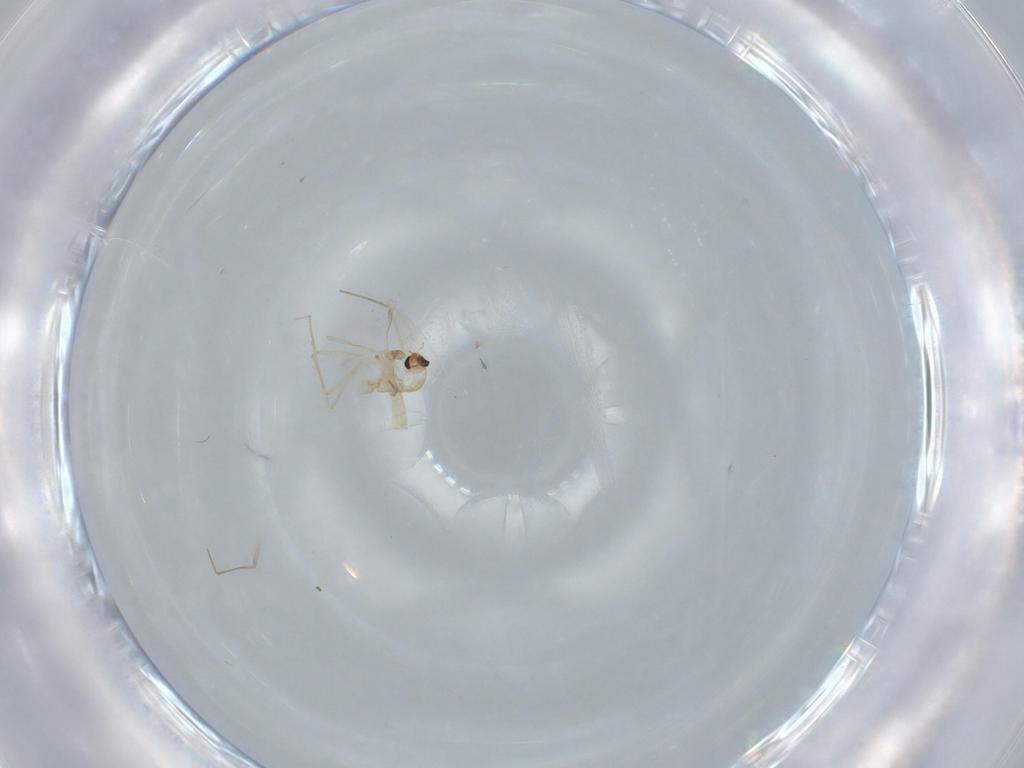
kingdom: Animalia
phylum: Arthropoda
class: Insecta
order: Diptera
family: Chironomidae
